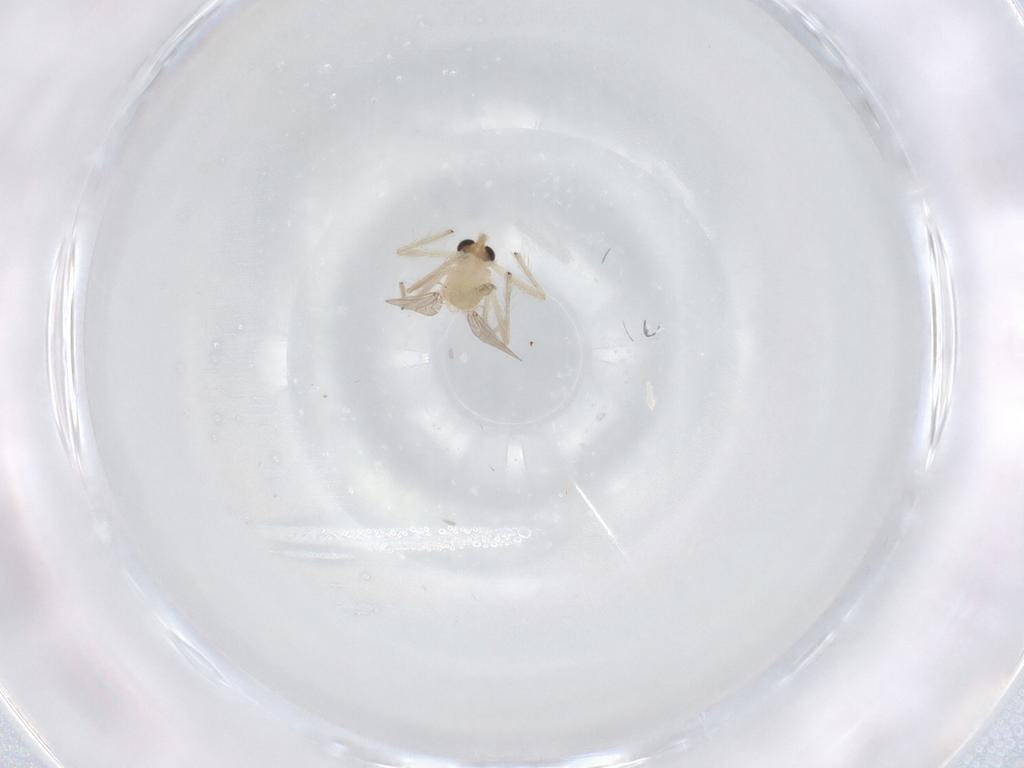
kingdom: Animalia
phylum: Arthropoda
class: Insecta
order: Diptera
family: Chironomidae
